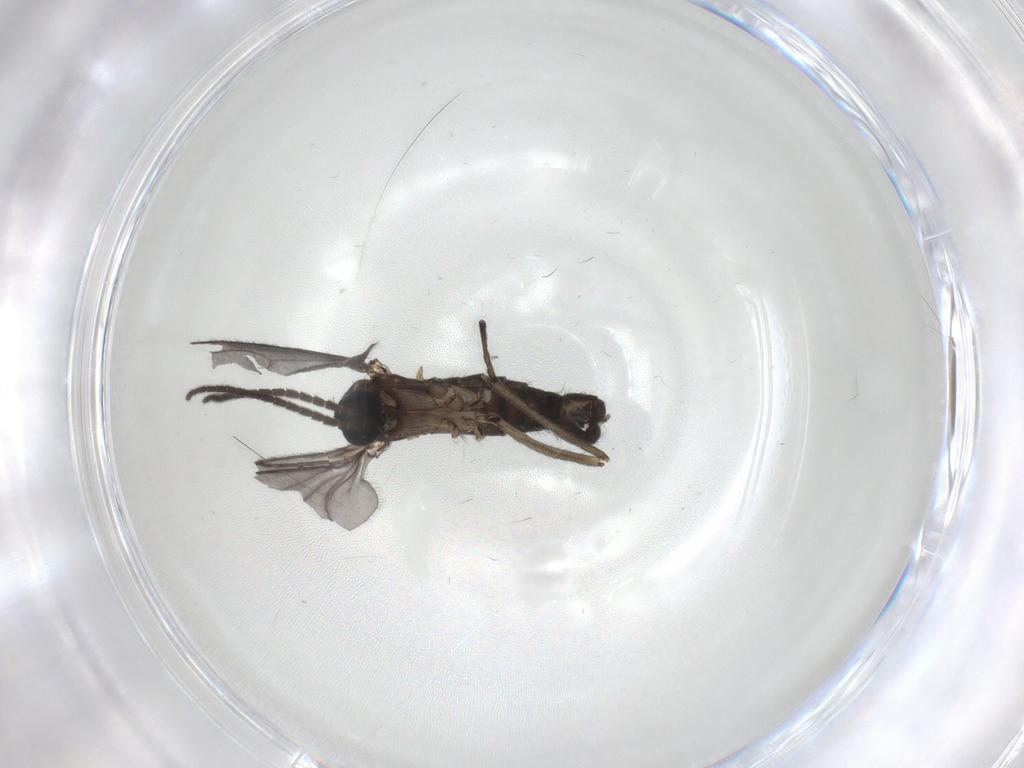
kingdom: Animalia
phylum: Arthropoda
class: Insecta
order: Diptera
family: Sciaridae
